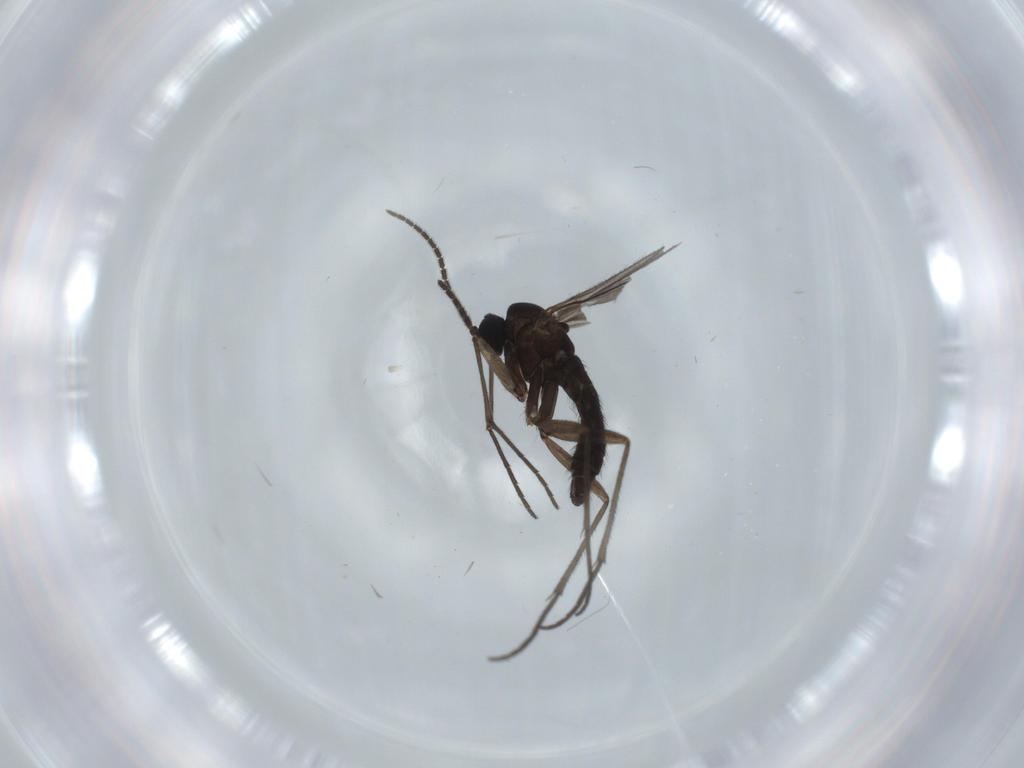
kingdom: Animalia
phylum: Arthropoda
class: Insecta
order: Diptera
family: Sciaridae
